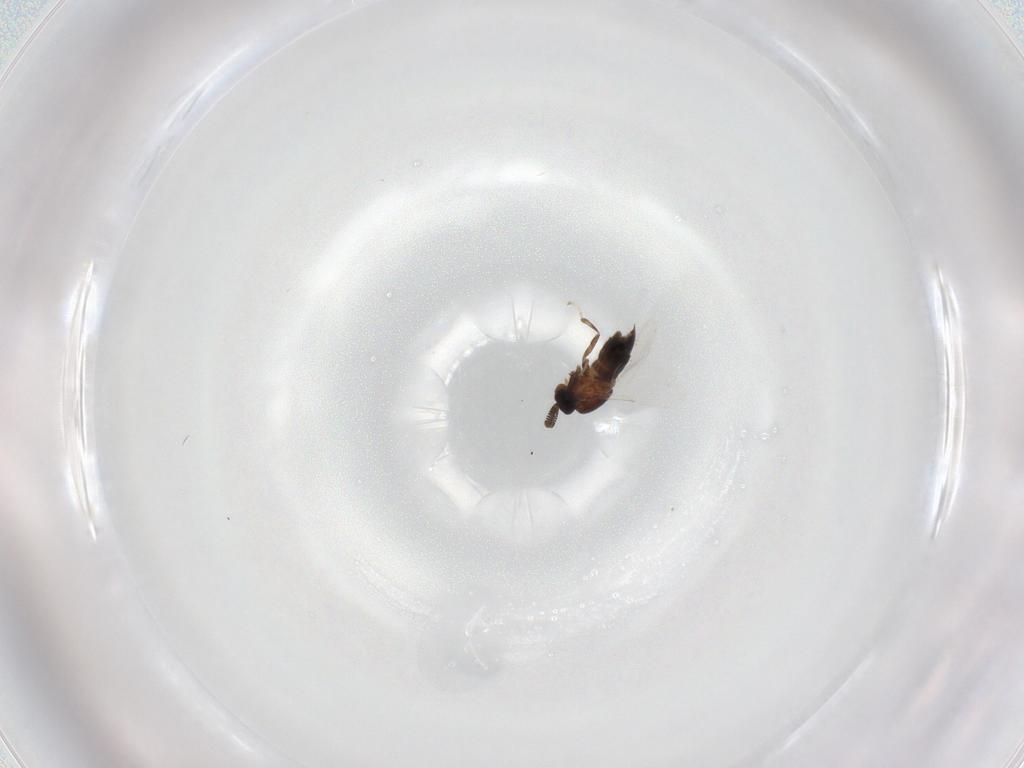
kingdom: Animalia
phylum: Arthropoda
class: Insecta
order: Diptera
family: Scatopsidae
